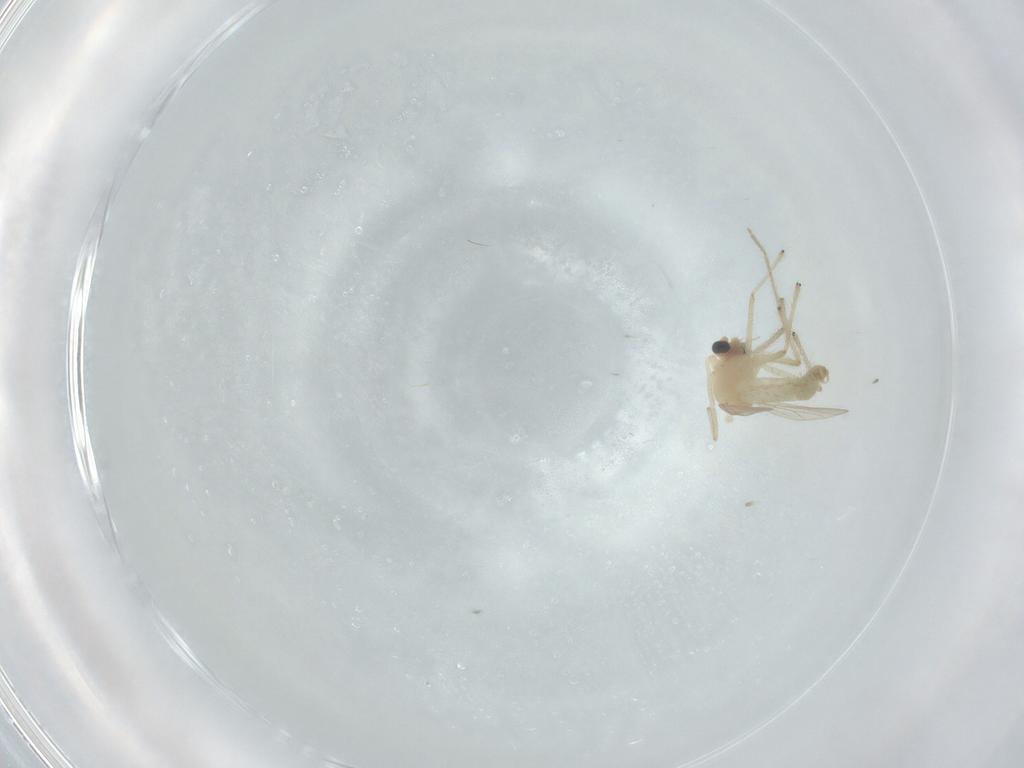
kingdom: Animalia
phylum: Arthropoda
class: Insecta
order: Diptera
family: Chironomidae
